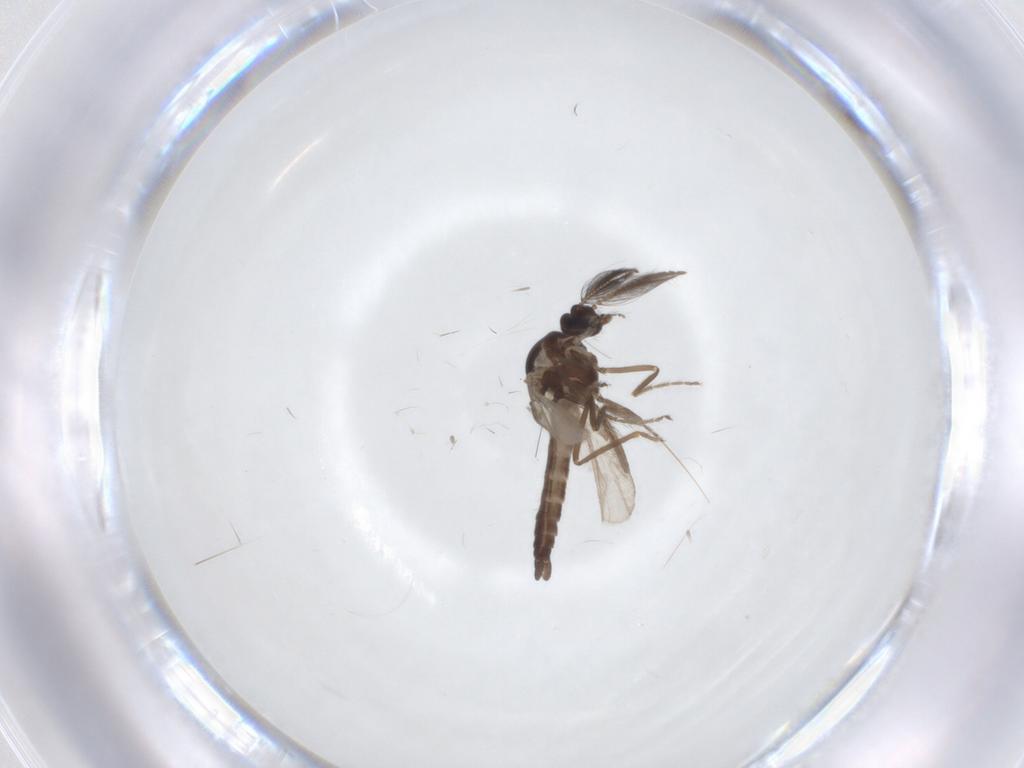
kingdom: Animalia
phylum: Arthropoda
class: Insecta
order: Diptera
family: Ceratopogonidae
